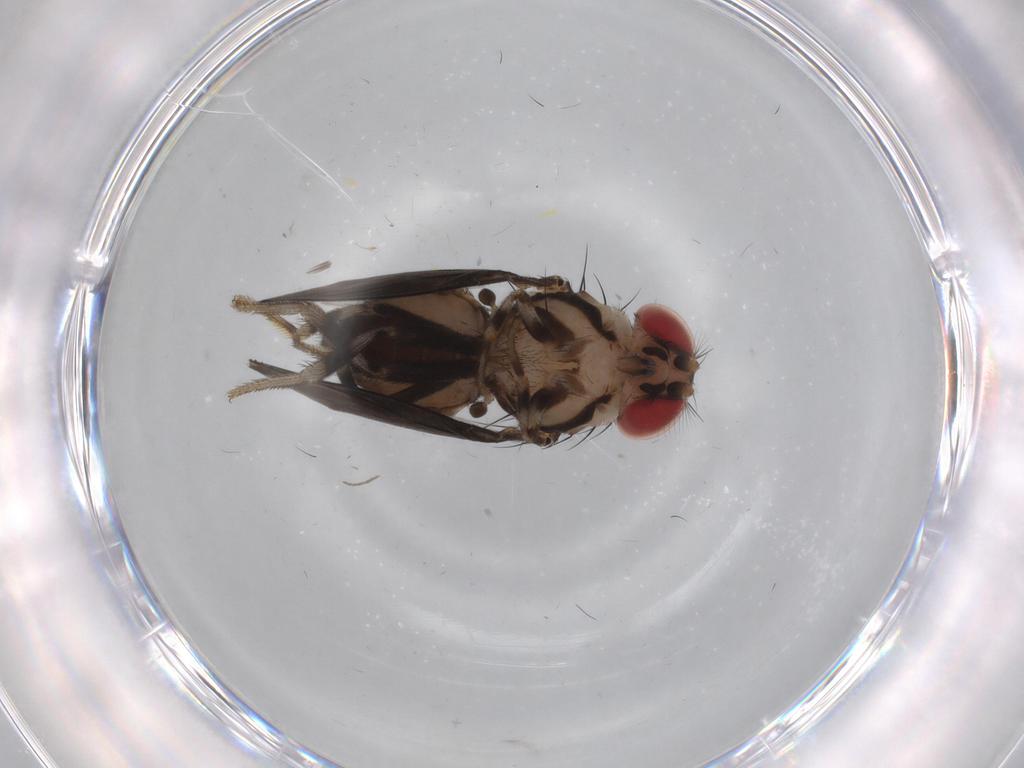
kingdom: Animalia
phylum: Arthropoda
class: Insecta
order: Diptera
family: Drosophilidae
